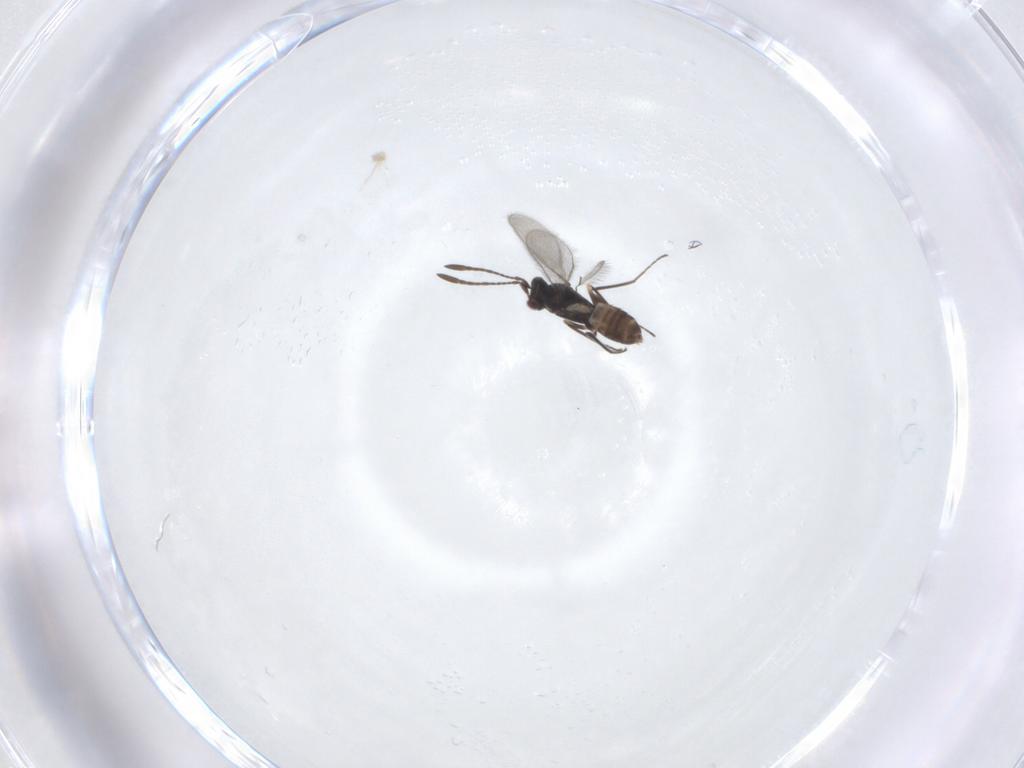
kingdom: Animalia
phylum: Arthropoda
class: Insecta
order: Hymenoptera
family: Mymaridae
